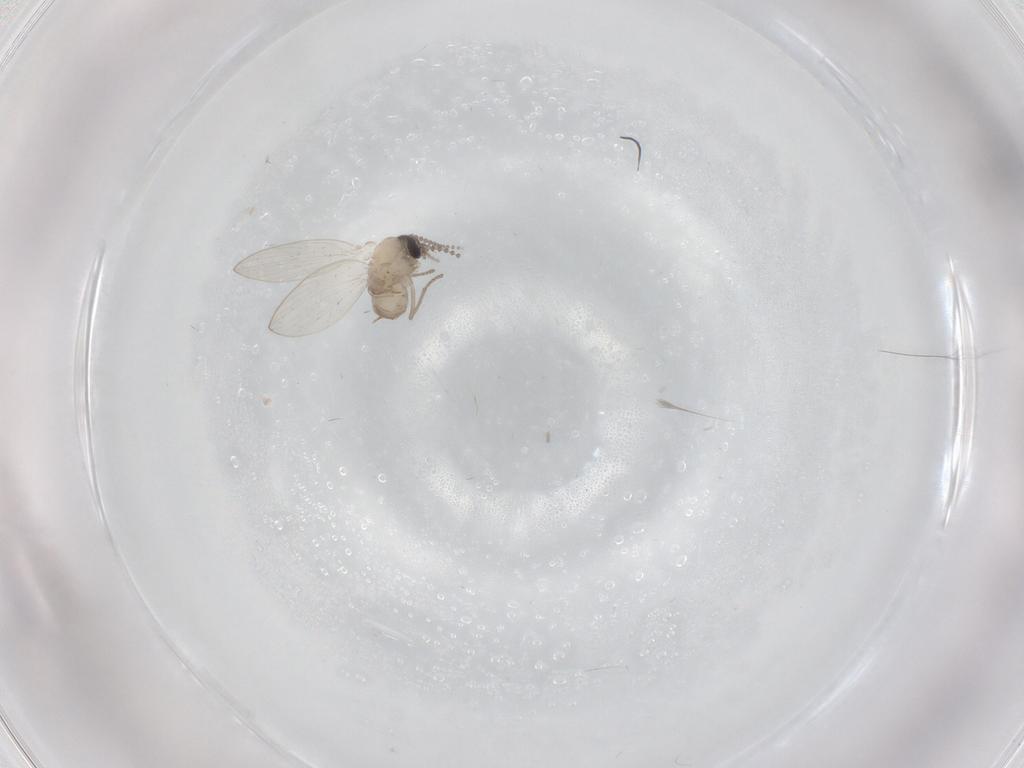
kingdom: Animalia
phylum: Arthropoda
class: Insecta
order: Diptera
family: Psychodidae
